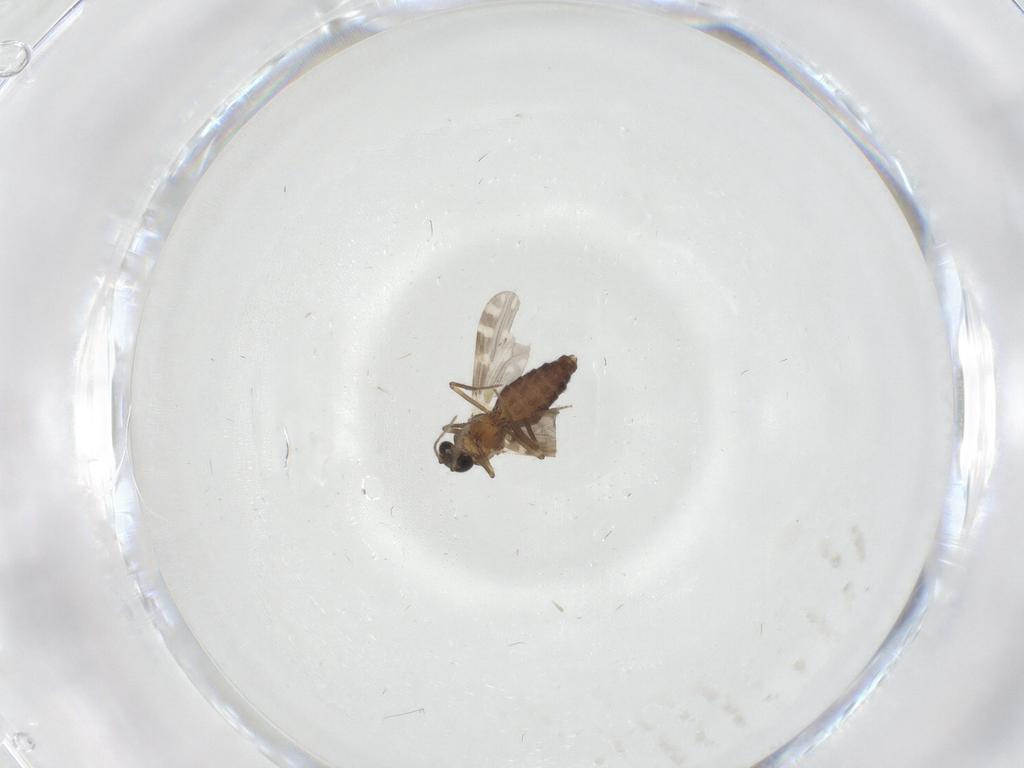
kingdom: Animalia
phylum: Arthropoda
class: Insecta
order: Diptera
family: Ceratopogonidae
